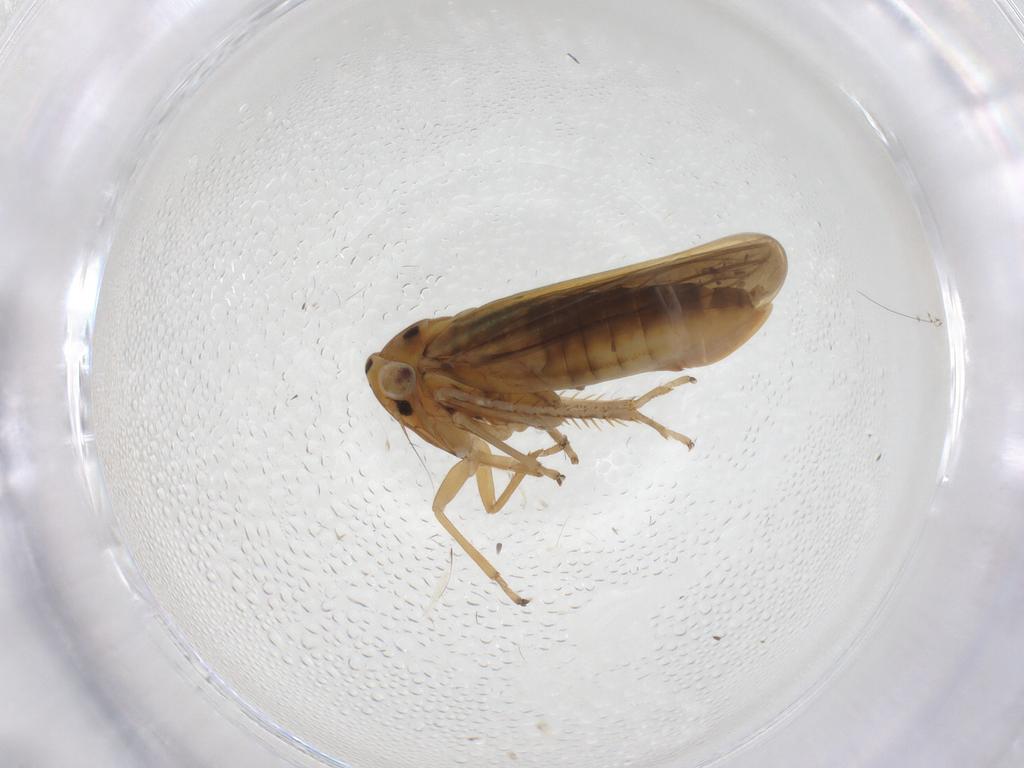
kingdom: Animalia
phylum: Arthropoda
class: Insecta
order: Hemiptera
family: Cicadellidae
